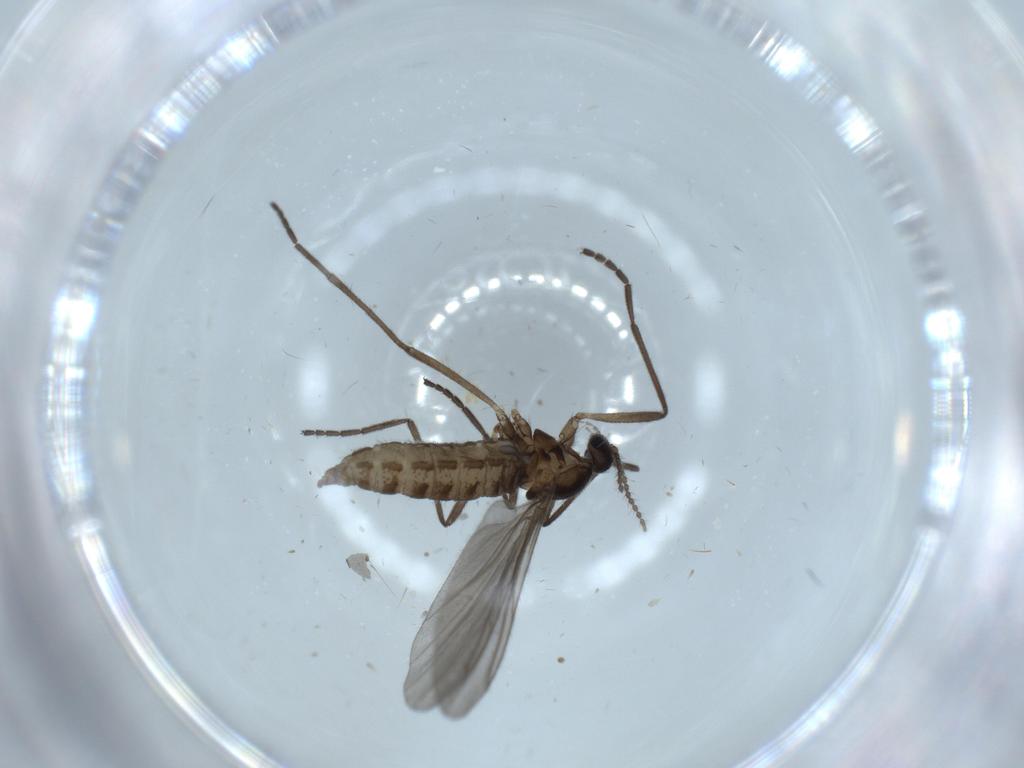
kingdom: Animalia
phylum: Arthropoda
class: Insecta
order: Diptera
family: Cecidomyiidae
